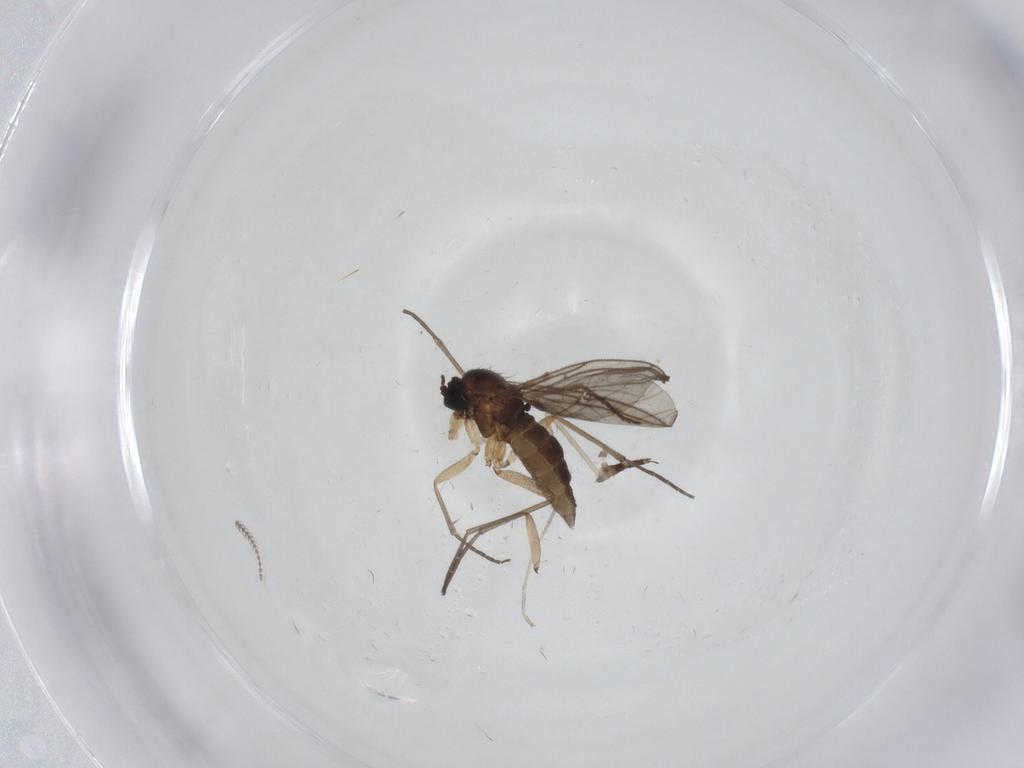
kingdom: Animalia
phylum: Arthropoda
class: Insecta
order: Diptera
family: Sciaridae
